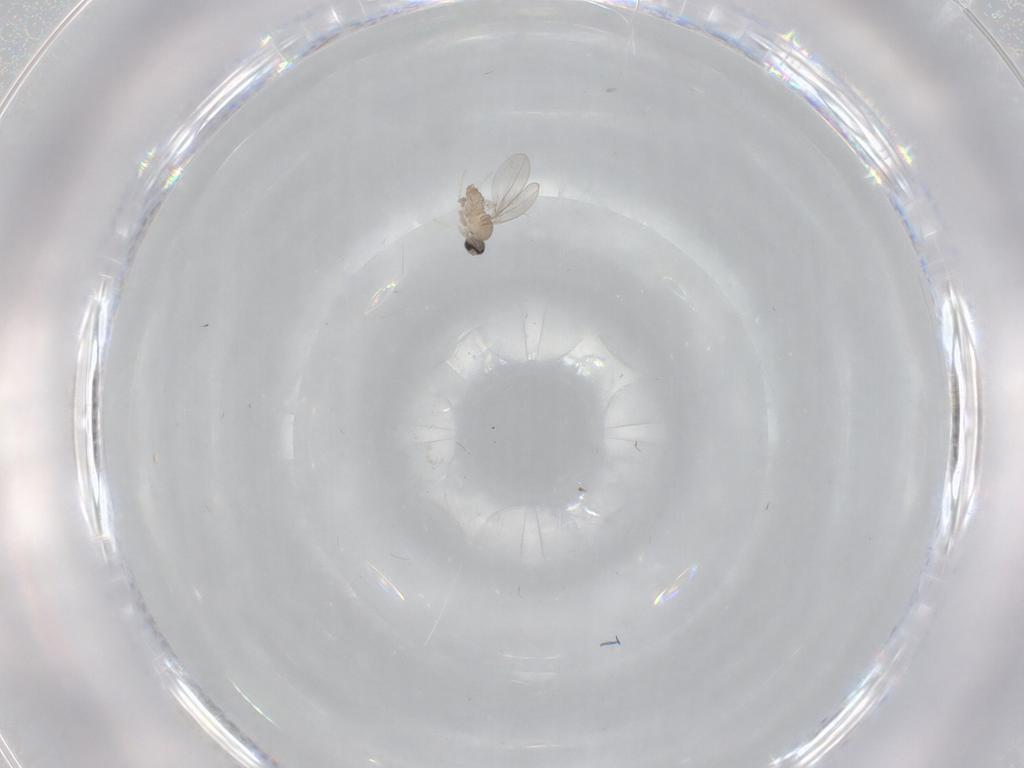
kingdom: Animalia
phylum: Arthropoda
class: Insecta
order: Diptera
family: Cecidomyiidae
